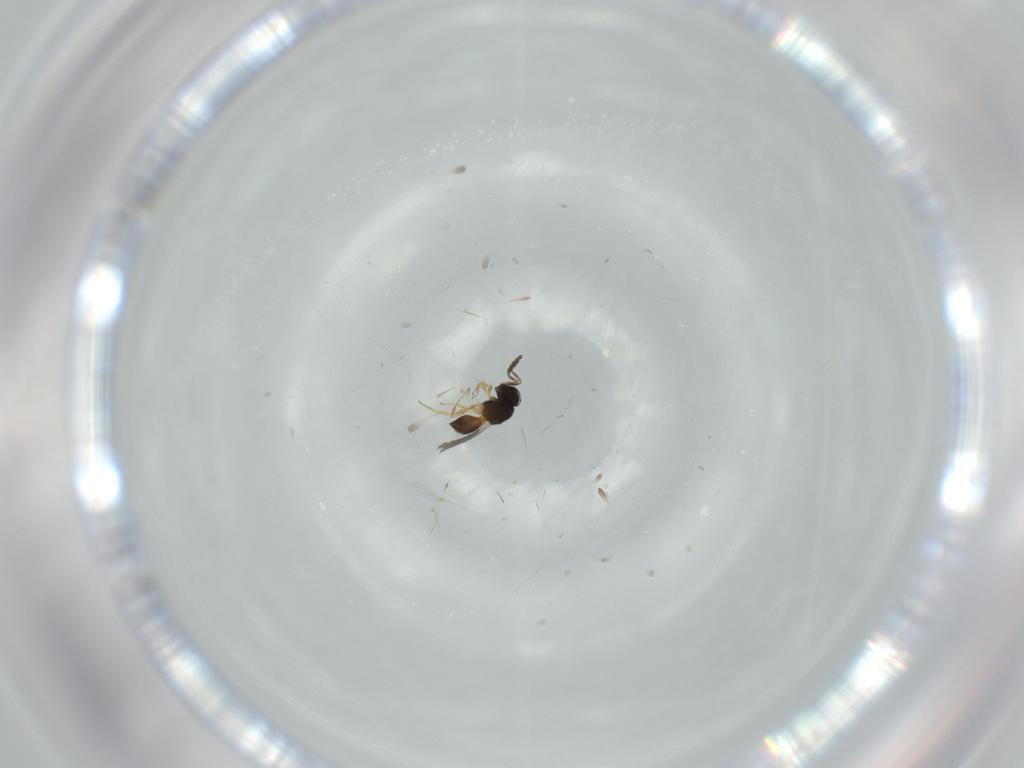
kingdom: Animalia
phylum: Arthropoda
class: Insecta
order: Hymenoptera
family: Scelionidae
